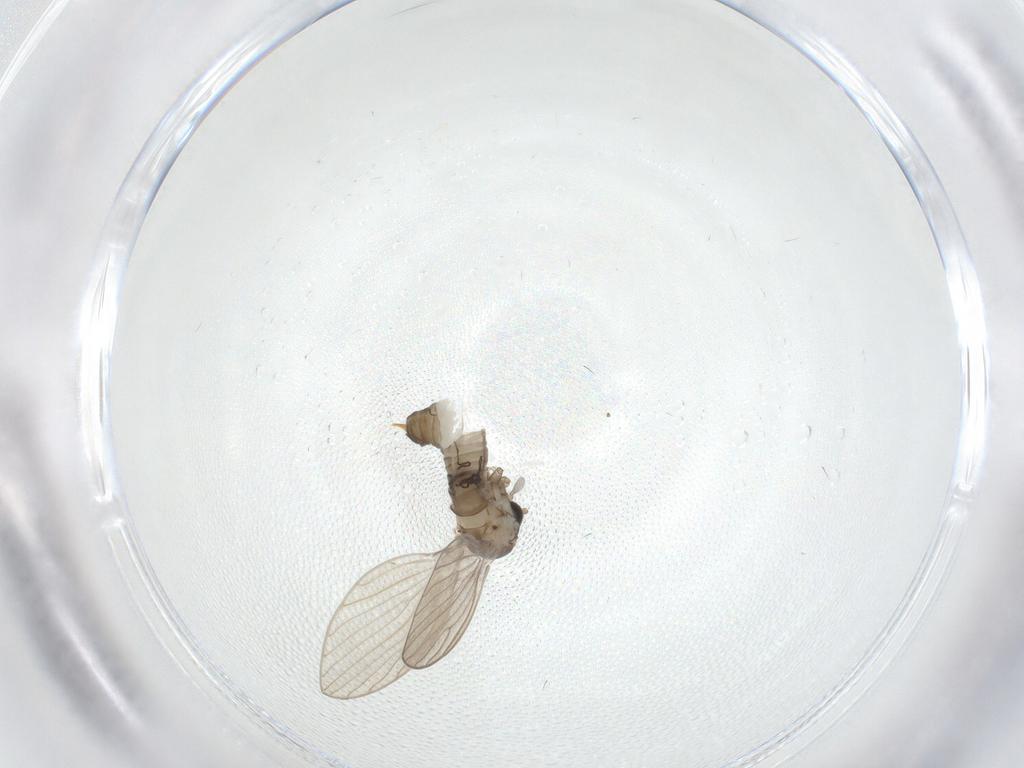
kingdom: Animalia
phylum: Arthropoda
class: Insecta
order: Diptera
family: Psychodidae
